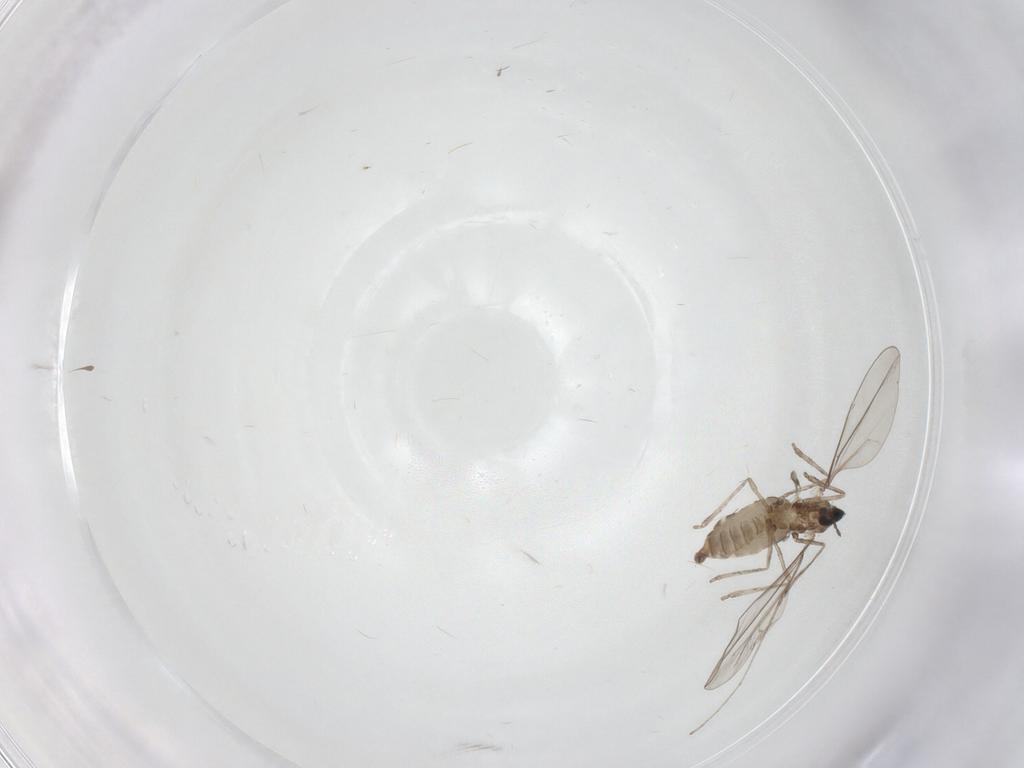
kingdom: Animalia
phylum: Arthropoda
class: Insecta
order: Diptera
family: Cecidomyiidae
